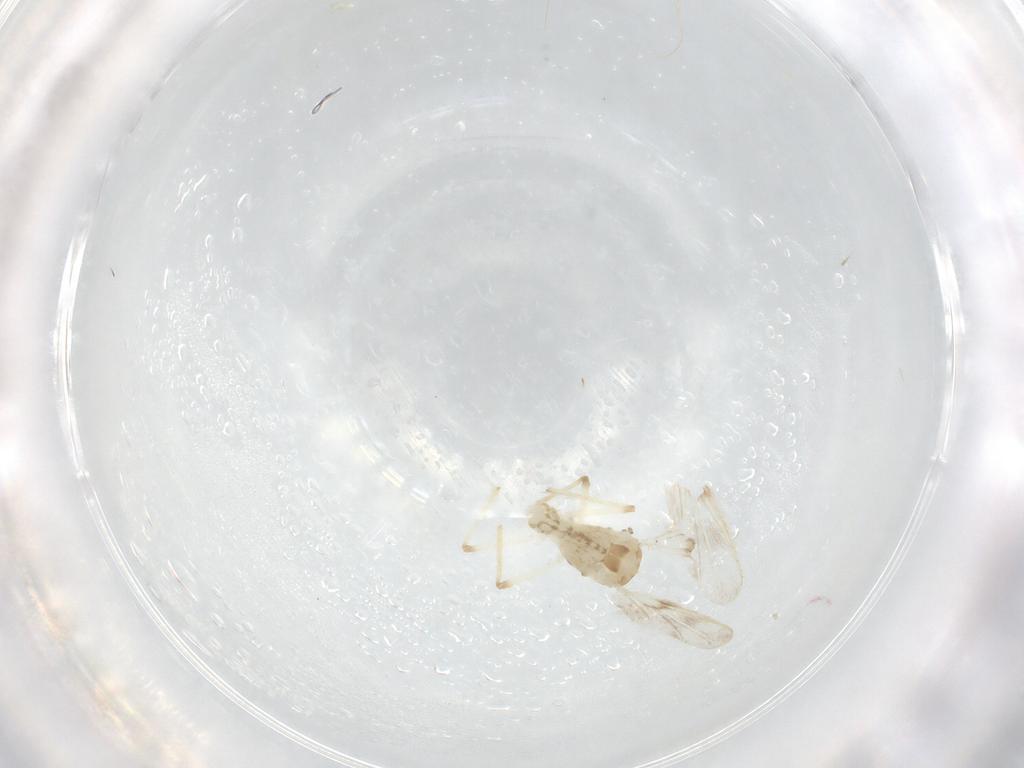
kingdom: Animalia
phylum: Arthropoda
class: Insecta
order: Diptera
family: Chironomidae
